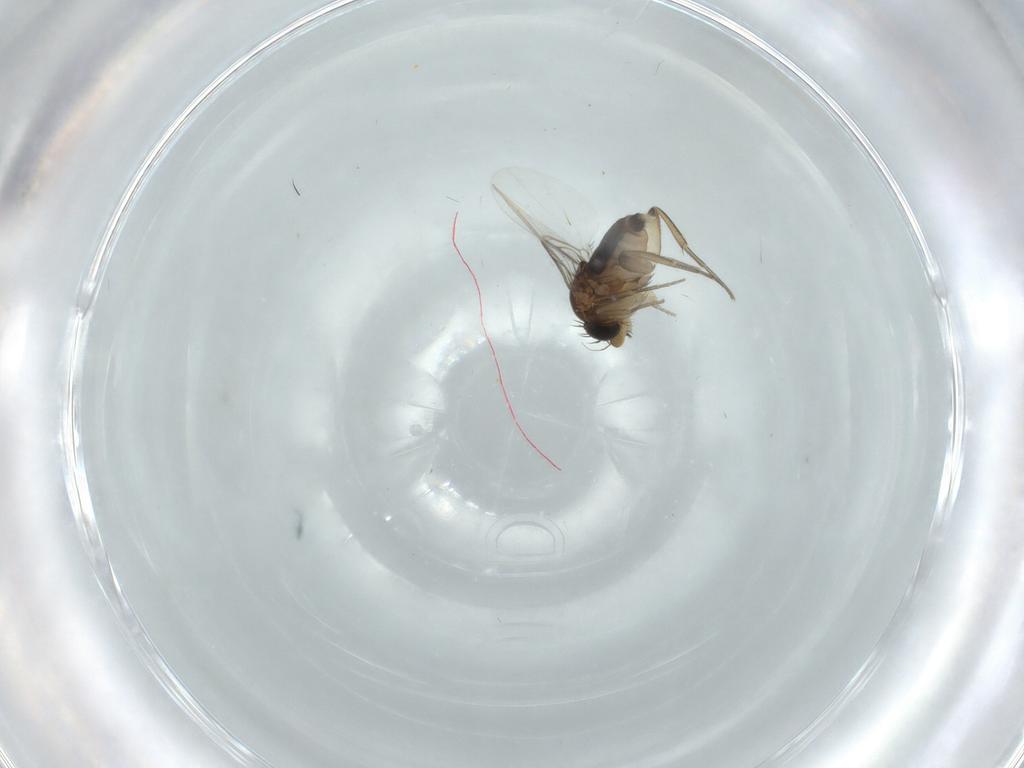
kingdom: Animalia
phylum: Arthropoda
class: Insecta
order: Diptera
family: Phoridae
